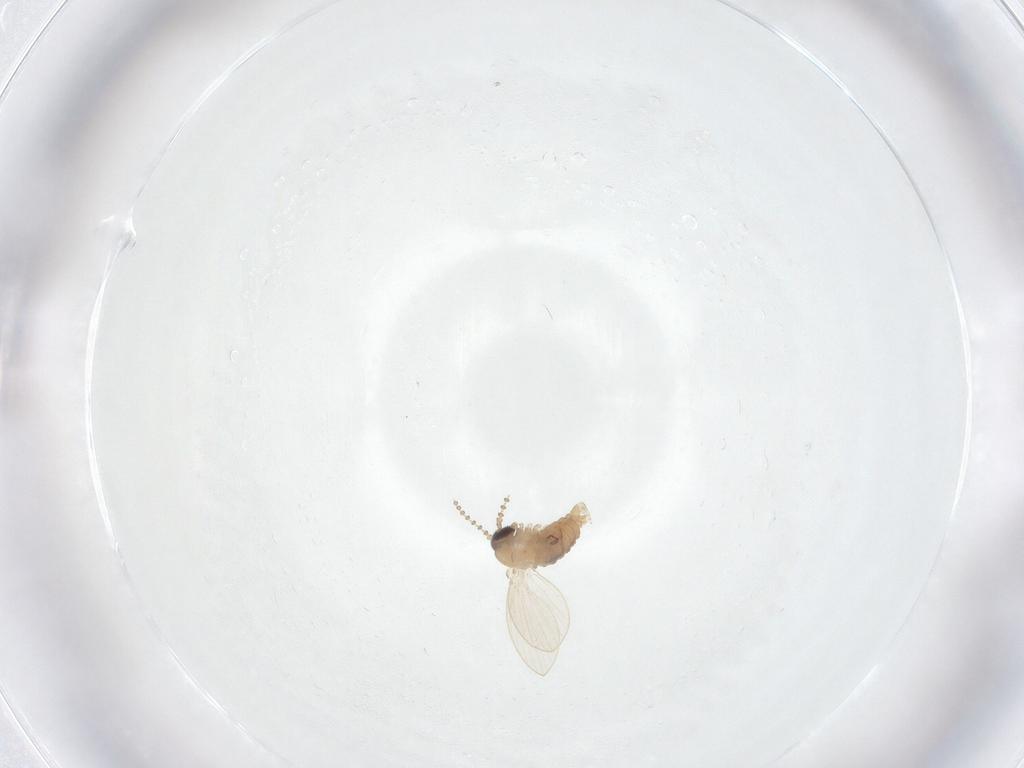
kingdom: Animalia
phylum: Arthropoda
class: Insecta
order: Diptera
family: Psychodidae
